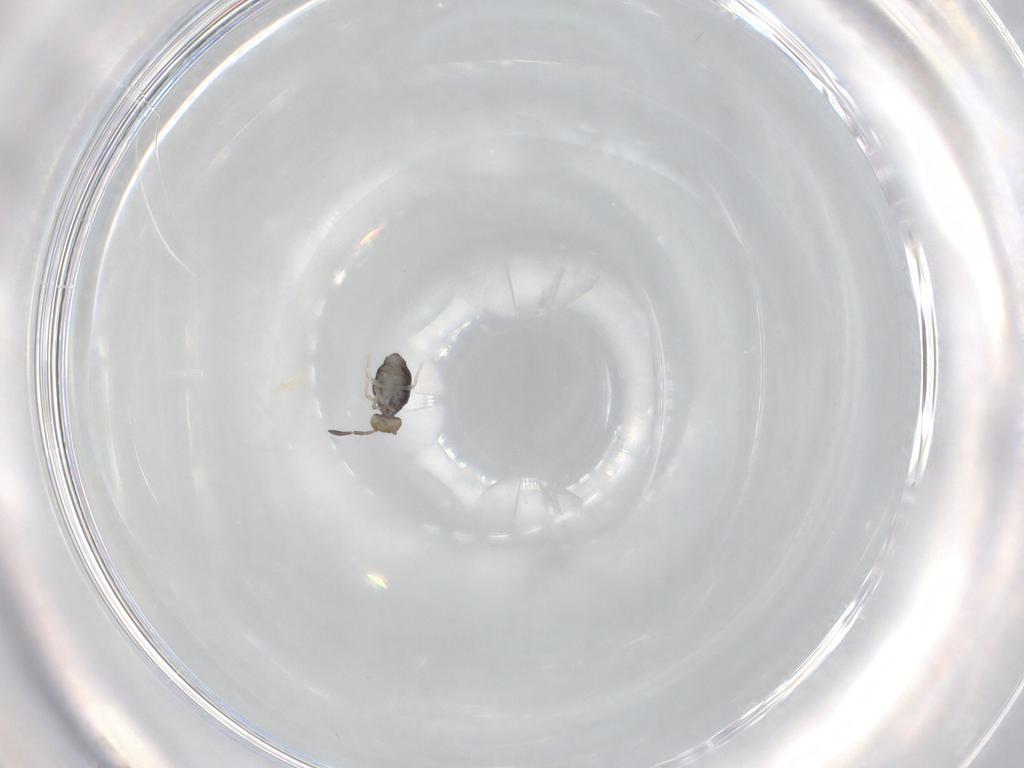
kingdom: Animalia
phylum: Arthropoda
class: Collembola
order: Symphypleona
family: Katiannidae
